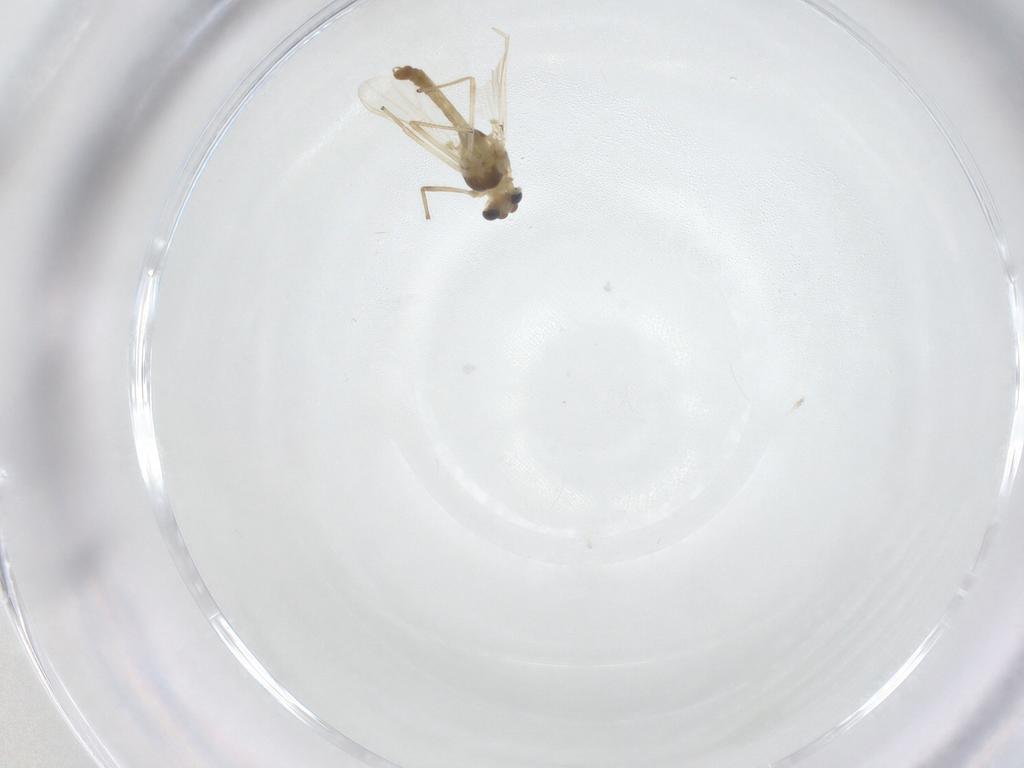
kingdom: Animalia
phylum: Arthropoda
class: Insecta
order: Diptera
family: Chironomidae
